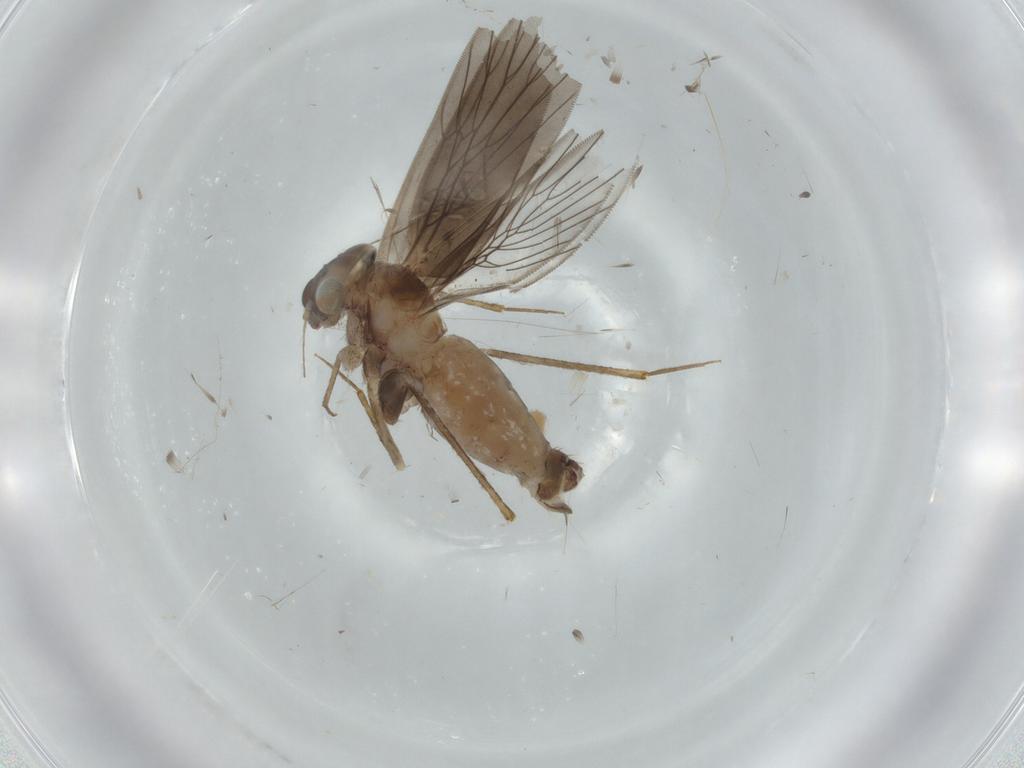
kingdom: Animalia
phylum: Arthropoda
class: Insecta
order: Psocodea
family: Lepidopsocidae
